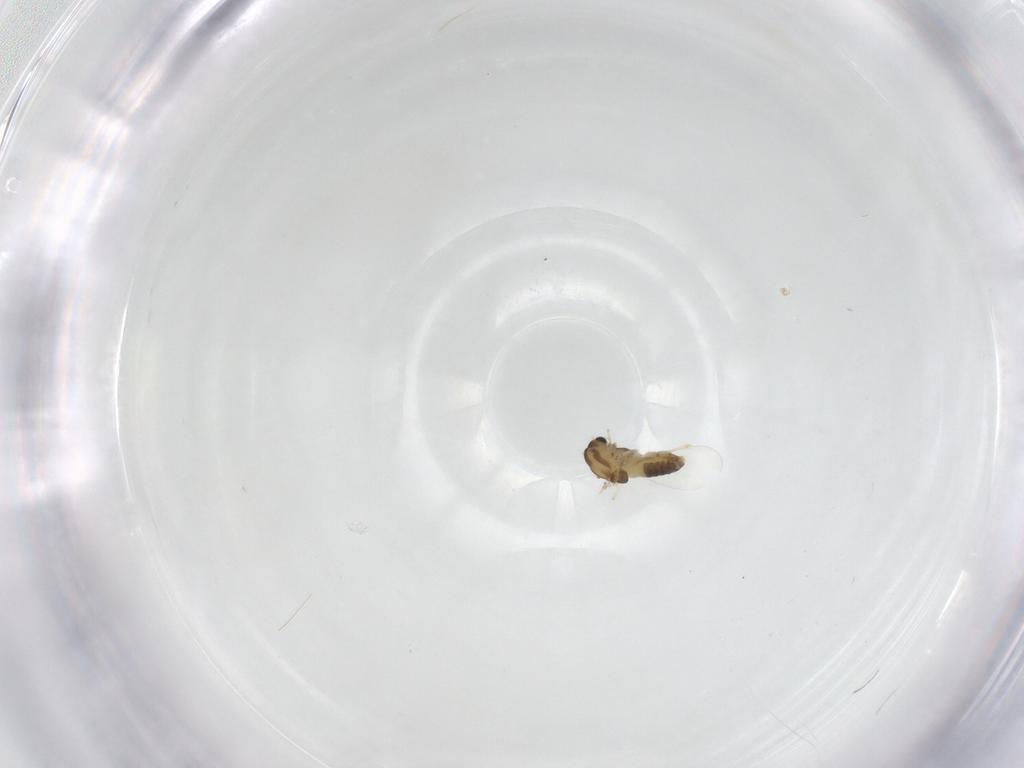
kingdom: Animalia
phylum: Arthropoda
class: Insecta
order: Diptera
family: Chironomidae
